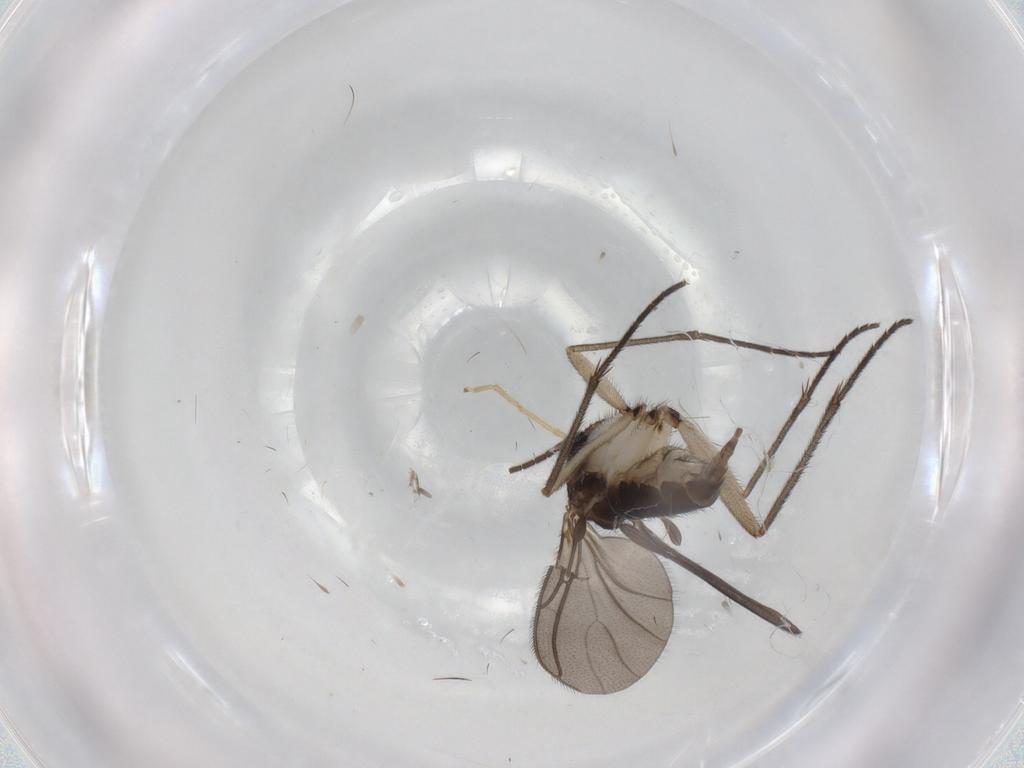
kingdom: Animalia
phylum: Arthropoda
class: Insecta
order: Diptera
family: Sciaridae
